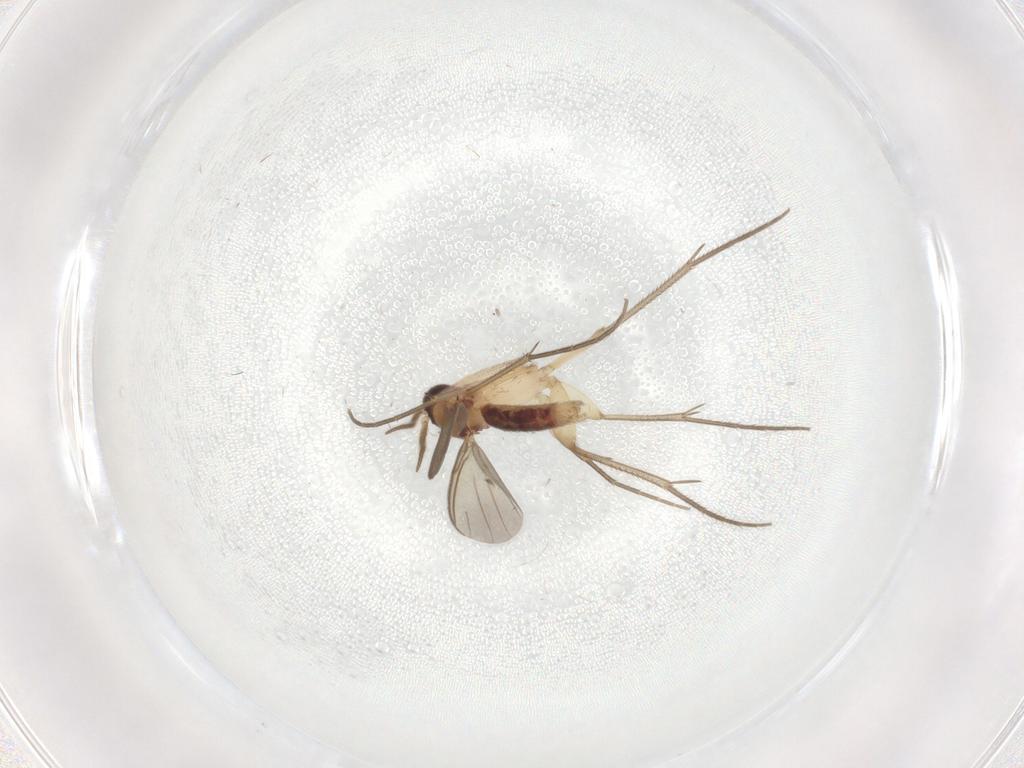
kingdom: Animalia
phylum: Arthropoda
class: Insecta
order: Diptera
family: Mycetophilidae
